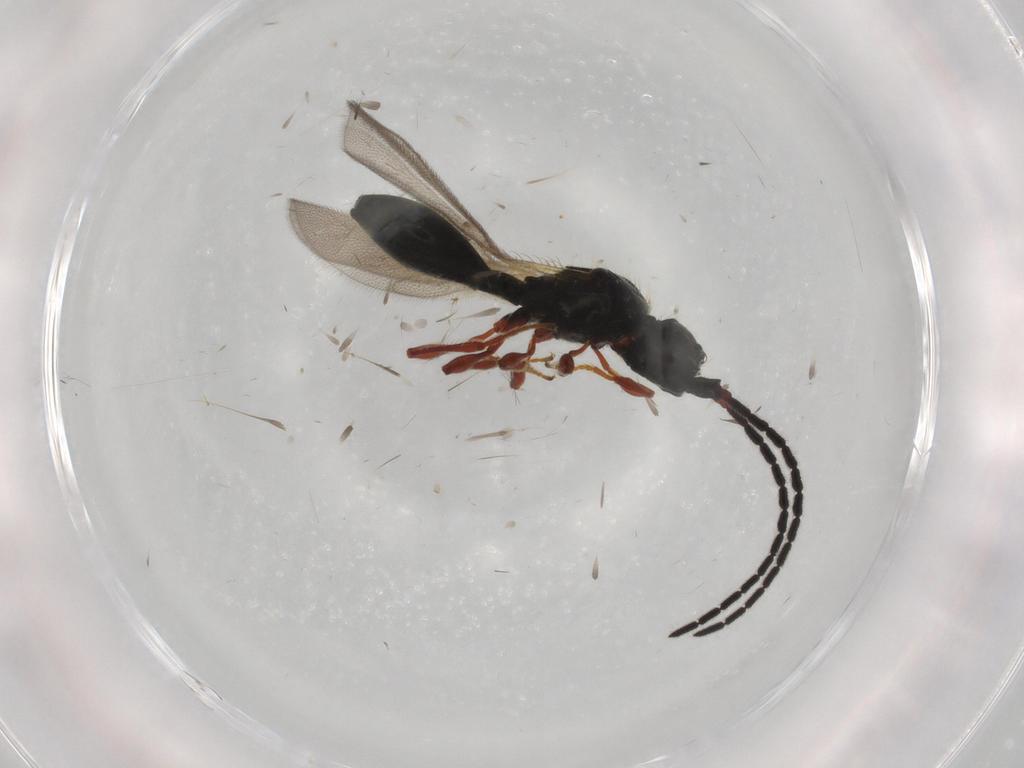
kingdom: Animalia
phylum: Arthropoda
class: Insecta
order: Hymenoptera
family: Diapriidae
